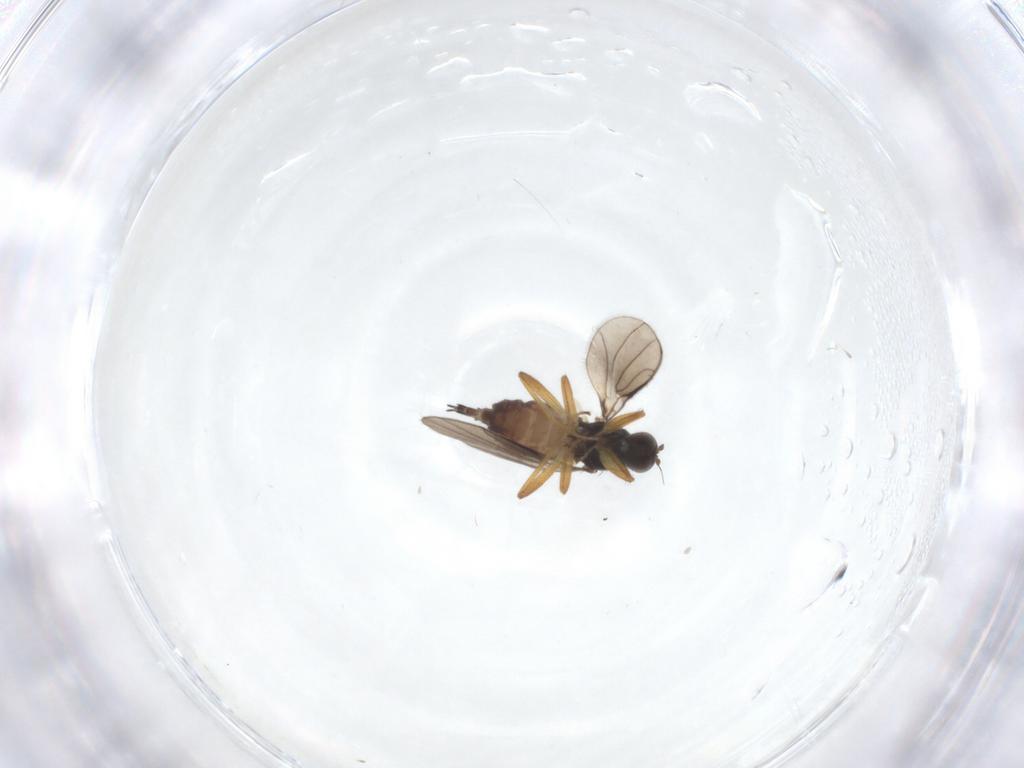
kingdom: Animalia
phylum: Arthropoda
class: Insecta
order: Diptera
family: Hybotidae
